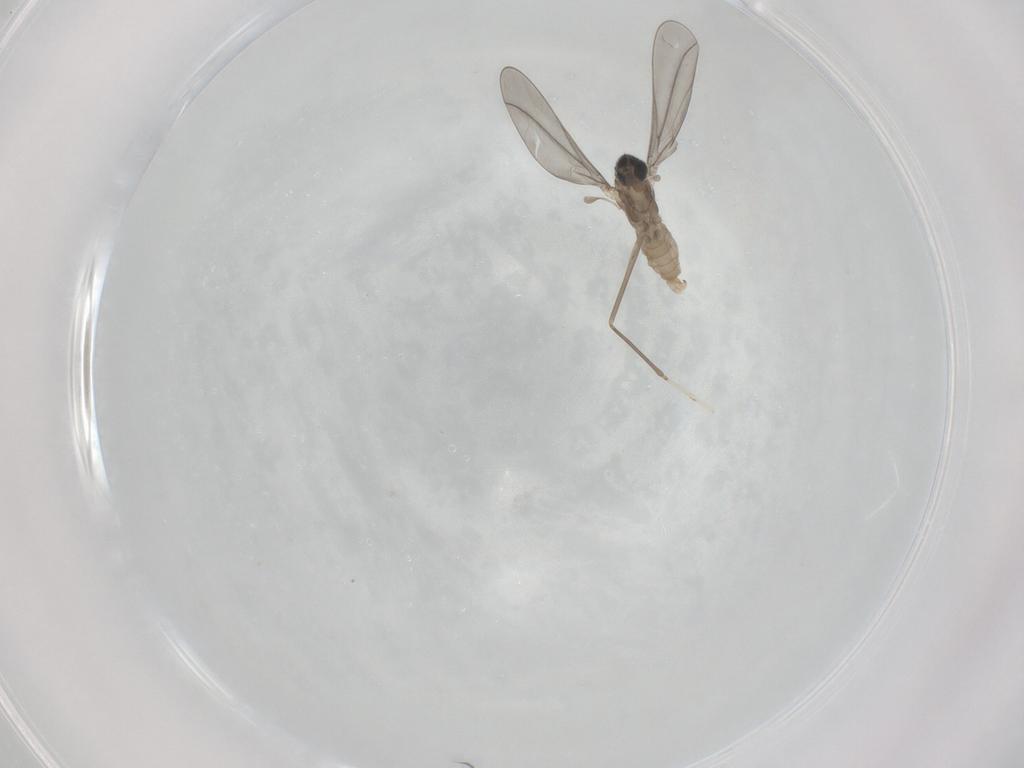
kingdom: Animalia
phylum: Arthropoda
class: Insecta
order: Diptera
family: Cecidomyiidae
